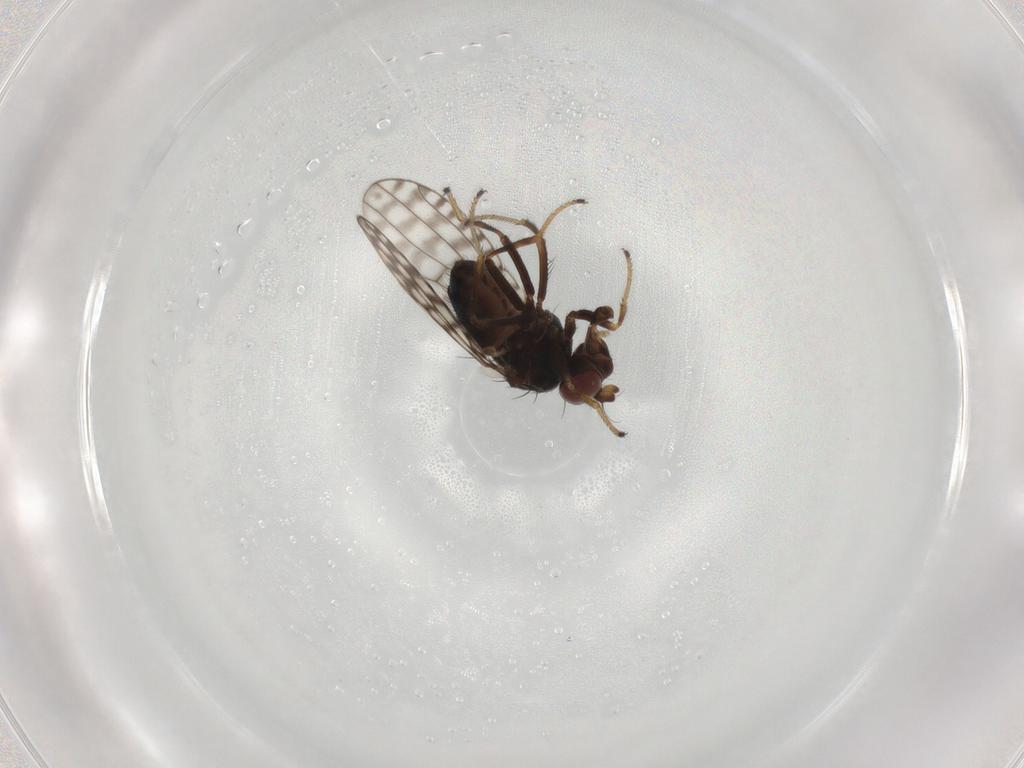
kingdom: Animalia
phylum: Arthropoda
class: Insecta
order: Diptera
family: Ephydridae
